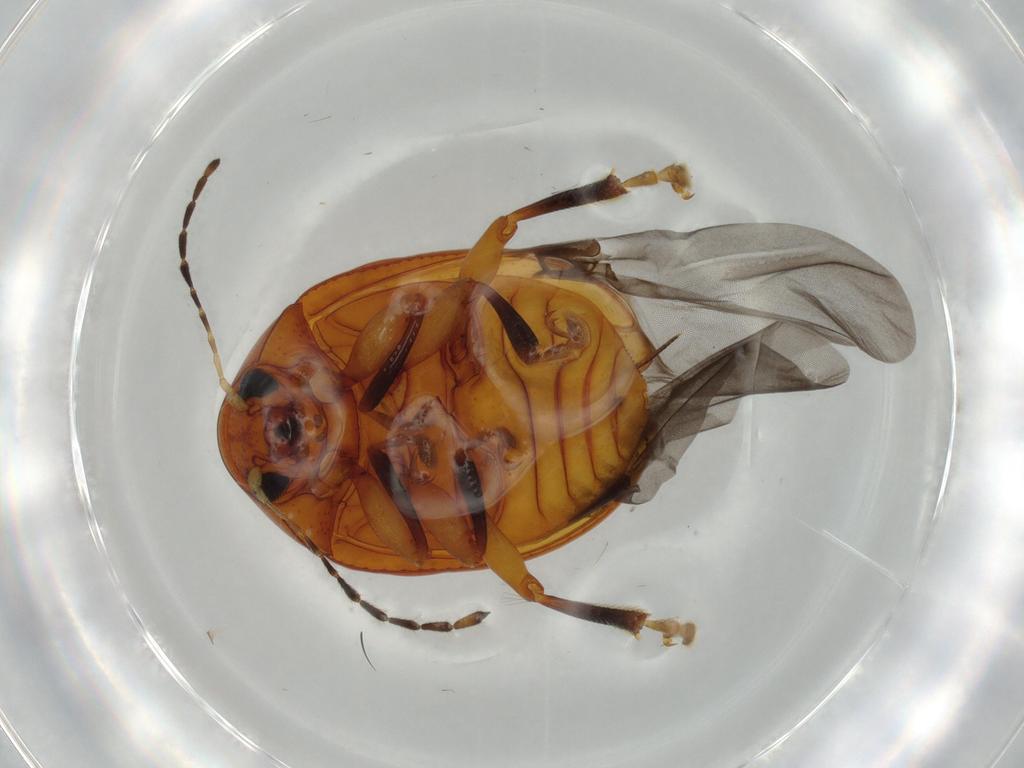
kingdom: Animalia
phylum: Arthropoda
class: Insecta
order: Coleoptera
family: Chrysomelidae
